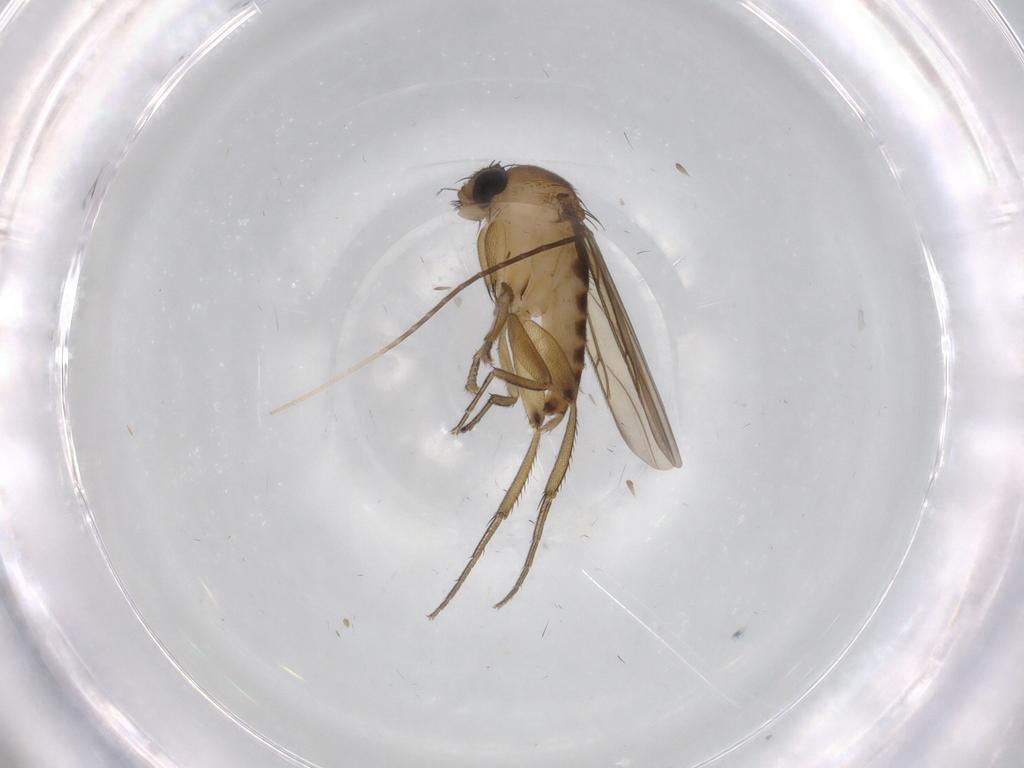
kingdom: Animalia
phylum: Arthropoda
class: Insecta
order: Diptera
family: Phoridae
